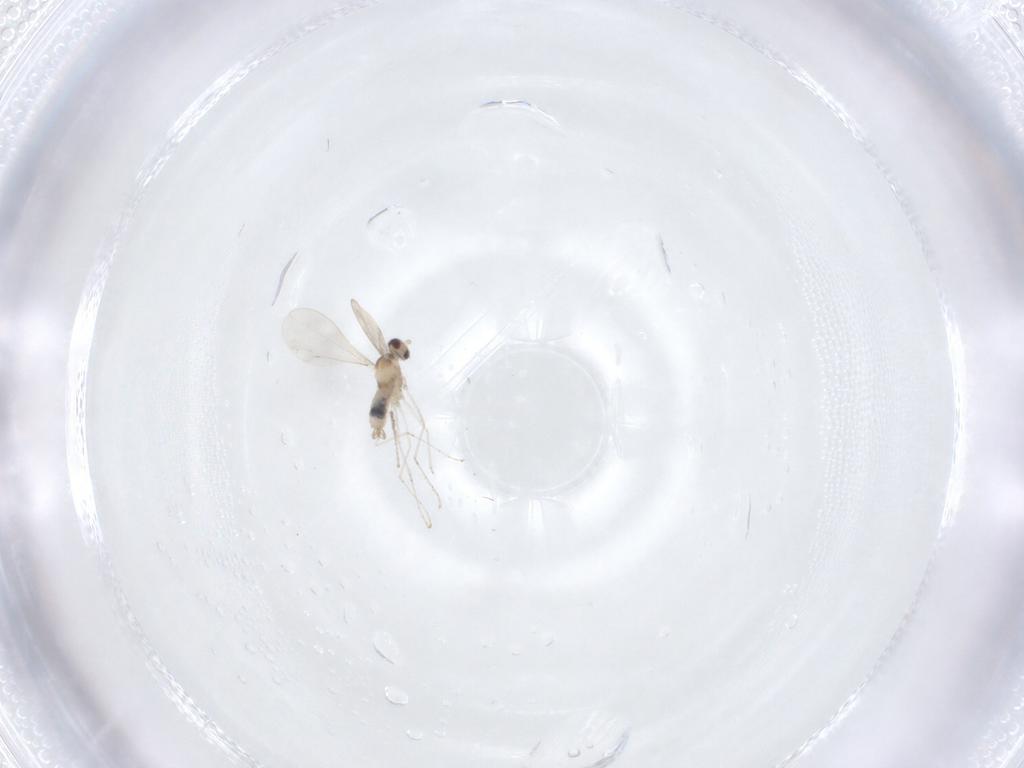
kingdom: Animalia
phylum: Arthropoda
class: Insecta
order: Diptera
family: Cecidomyiidae
